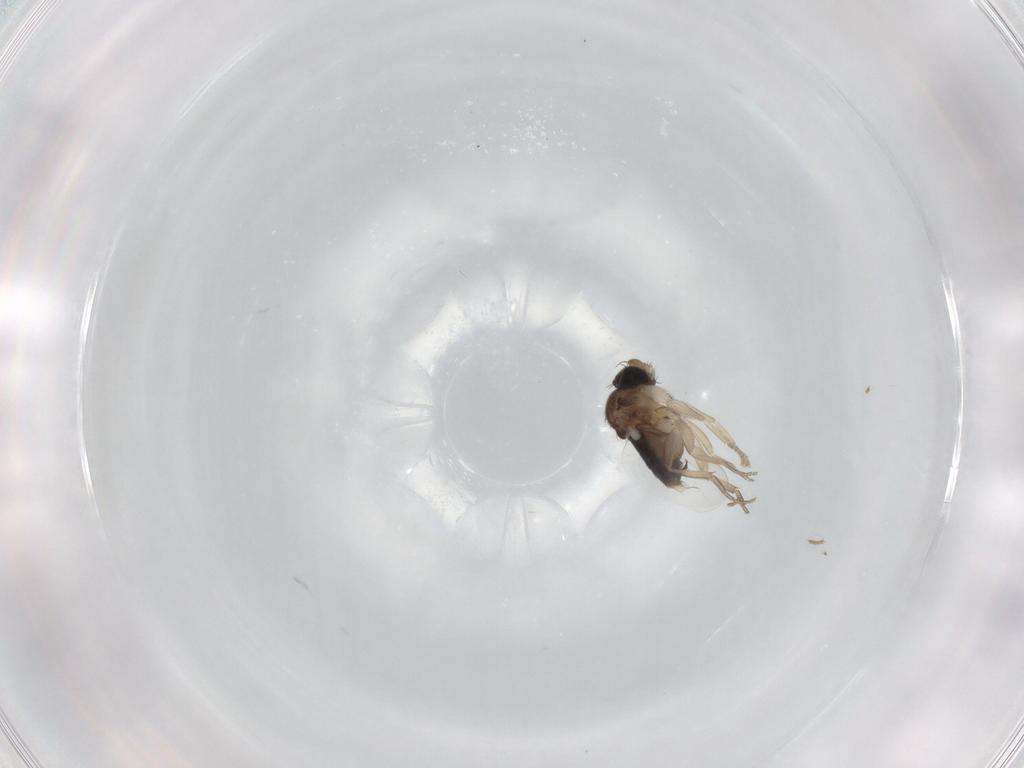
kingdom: Animalia
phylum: Arthropoda
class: Insecta
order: Diptera
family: Phoridae
